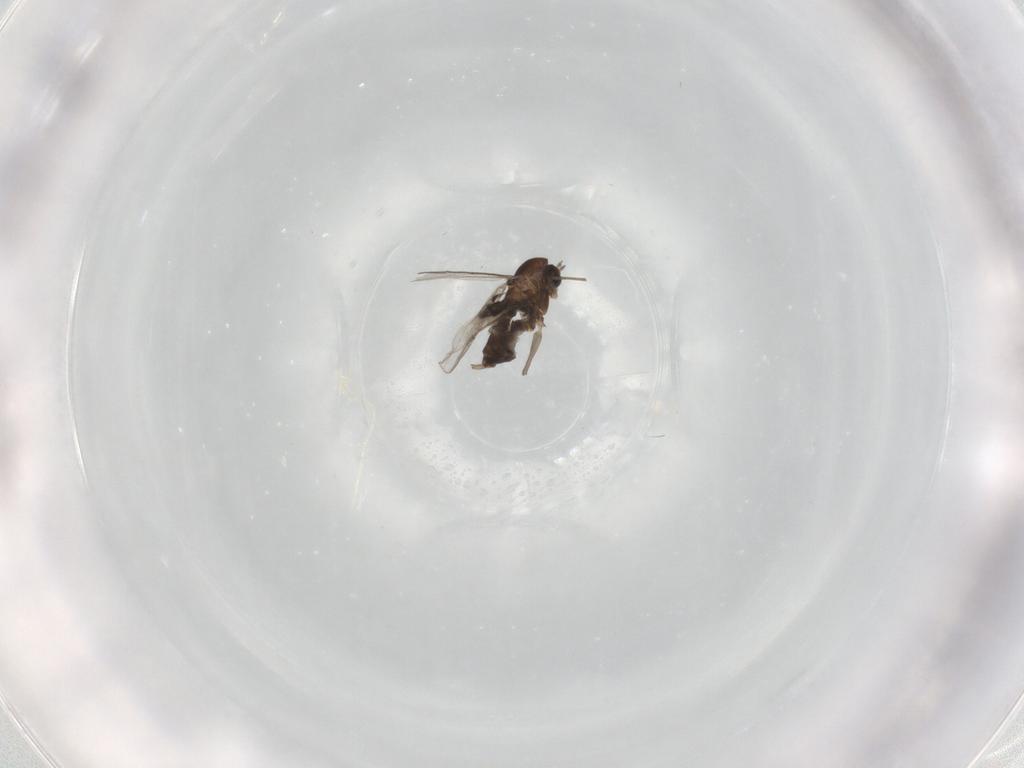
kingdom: Animalia
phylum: Arthropoda
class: Insecta
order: Diptera
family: Chironomidae
